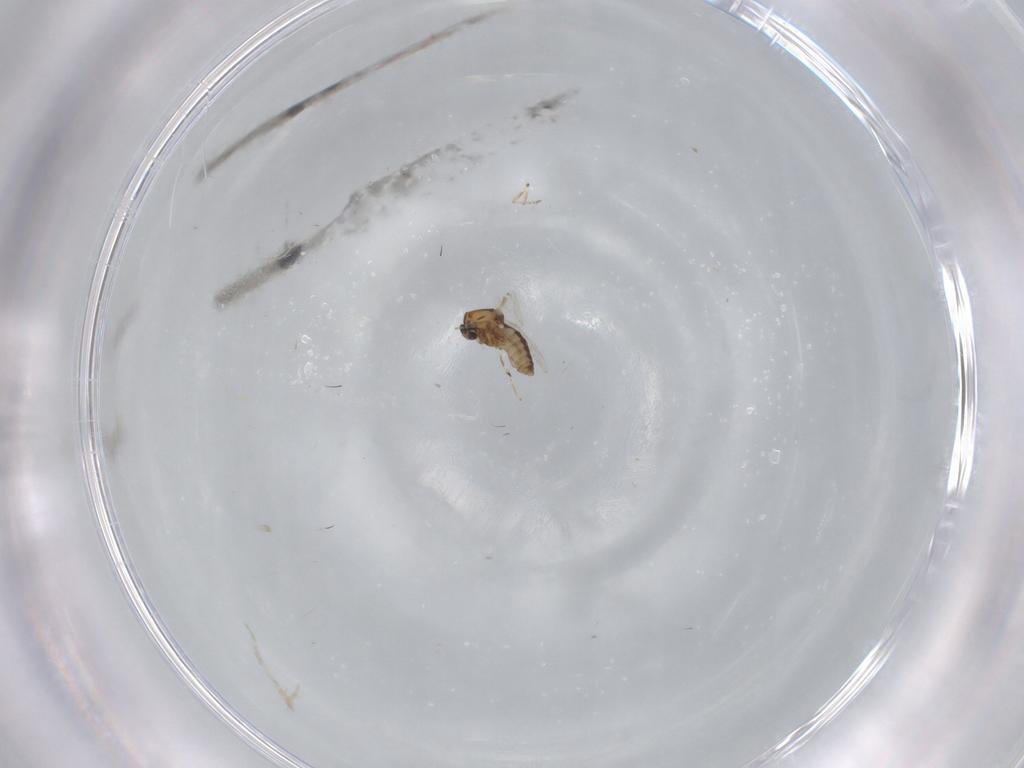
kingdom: Animalia
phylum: Arthropoda
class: Insecta
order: Diptera
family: Ceratopogonidae
